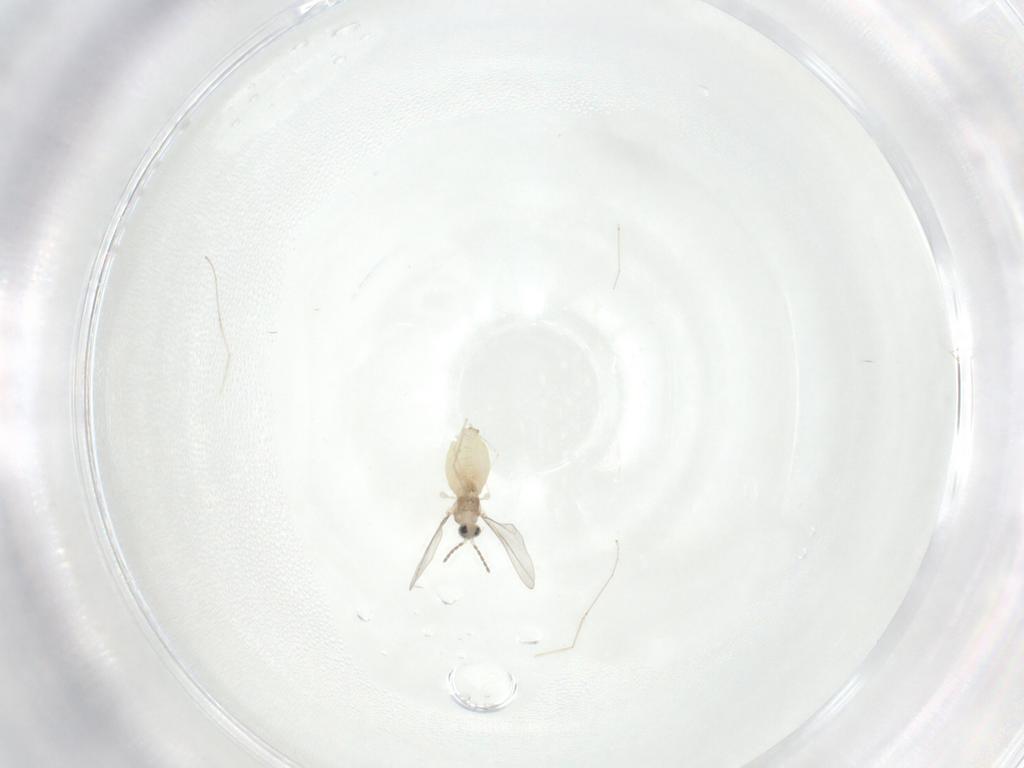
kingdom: Animalia
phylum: Arthropoda
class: Insecta
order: Diptera
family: Cecidomyiidae
